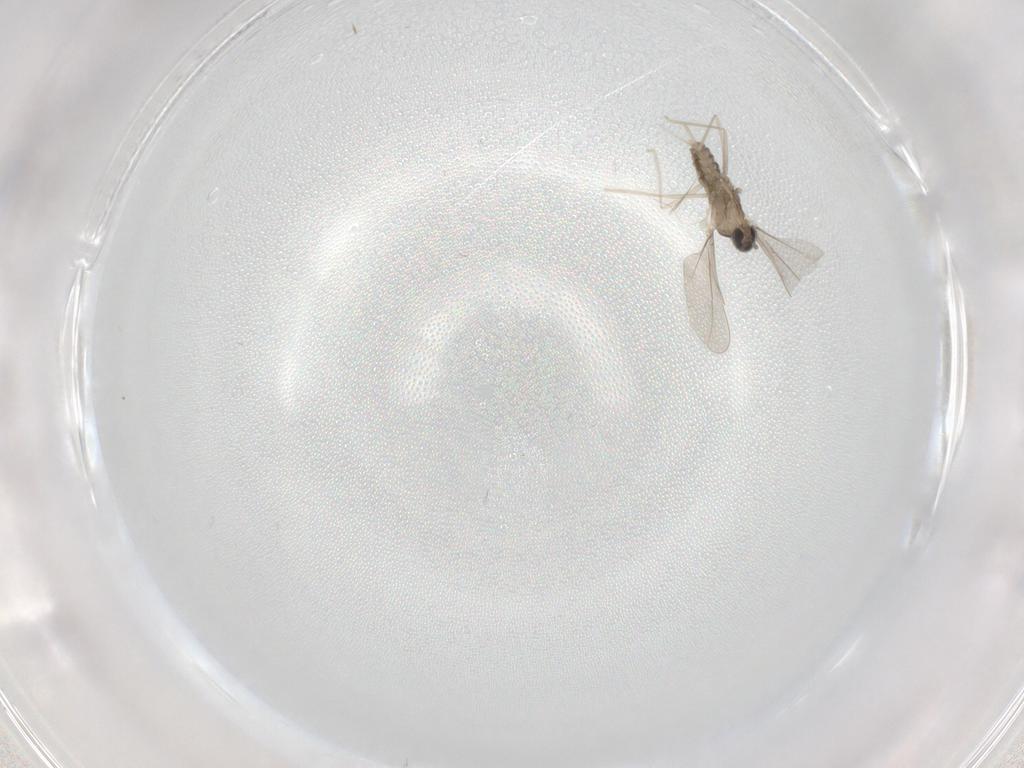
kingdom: Animalia
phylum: Arthropoda
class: Insecta
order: Diptera
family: Cecidomyiidae
